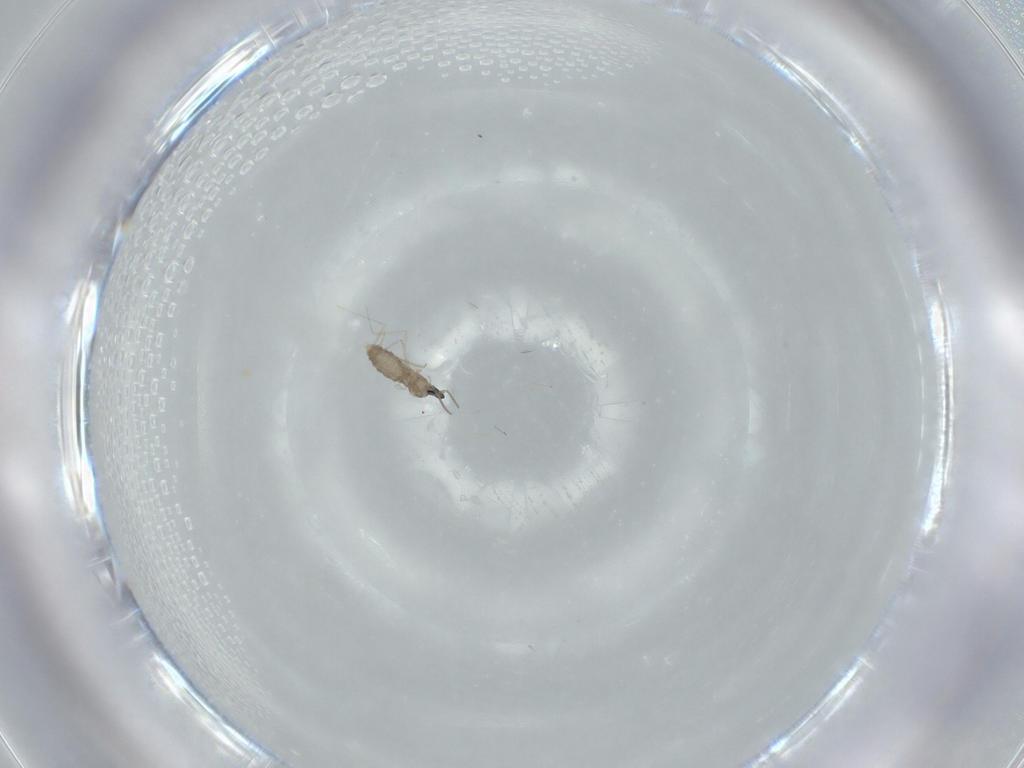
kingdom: Animalia
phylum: Arthropoda
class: Insecta
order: Diptera
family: Cecidomyiidae
